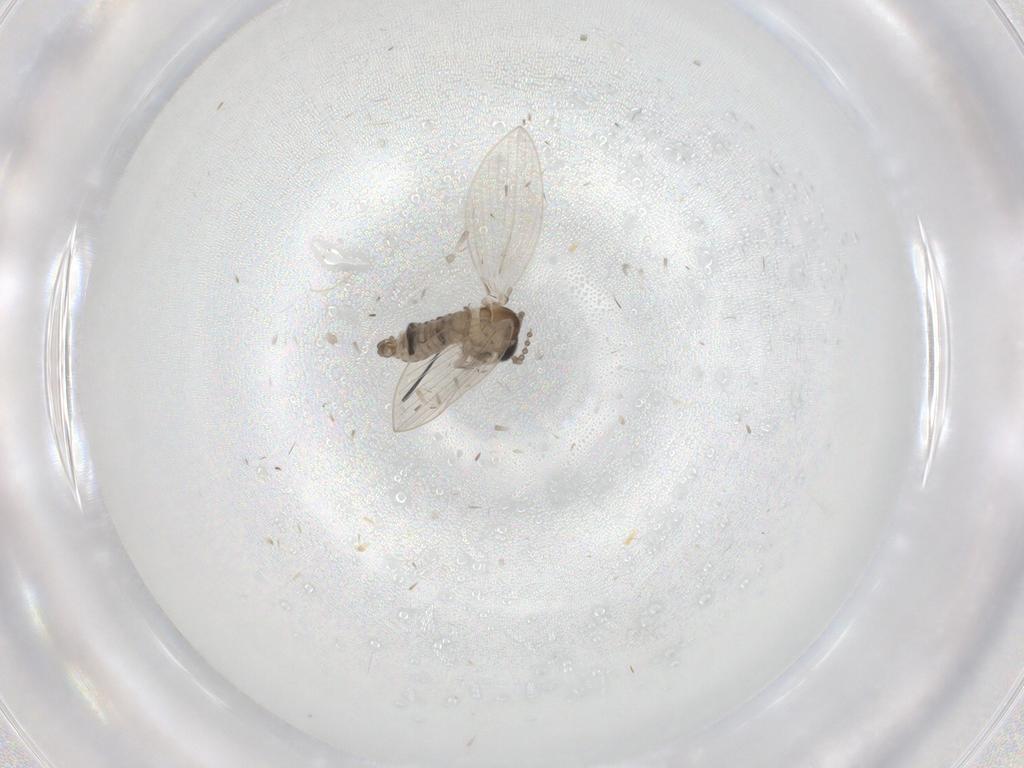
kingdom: Animalia
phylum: Arthropoda
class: Insecta
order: Diptera
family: Psychodidae
